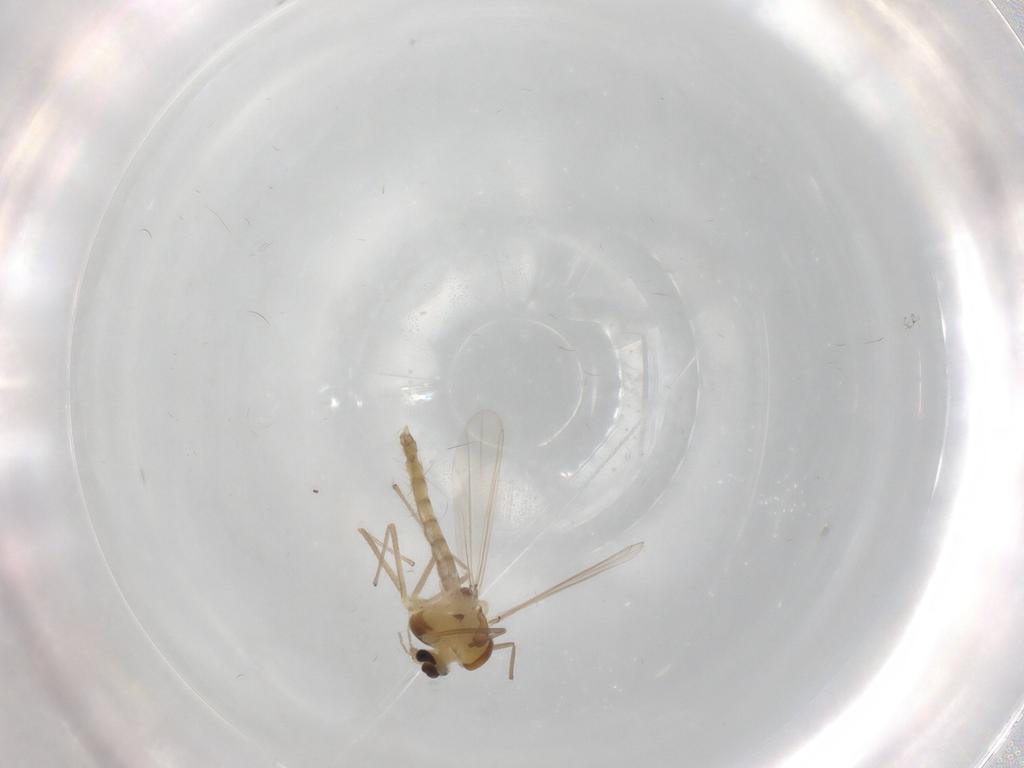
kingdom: Animalia
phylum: Arthropoda
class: Insecta
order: Diptera
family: Chironomidae
